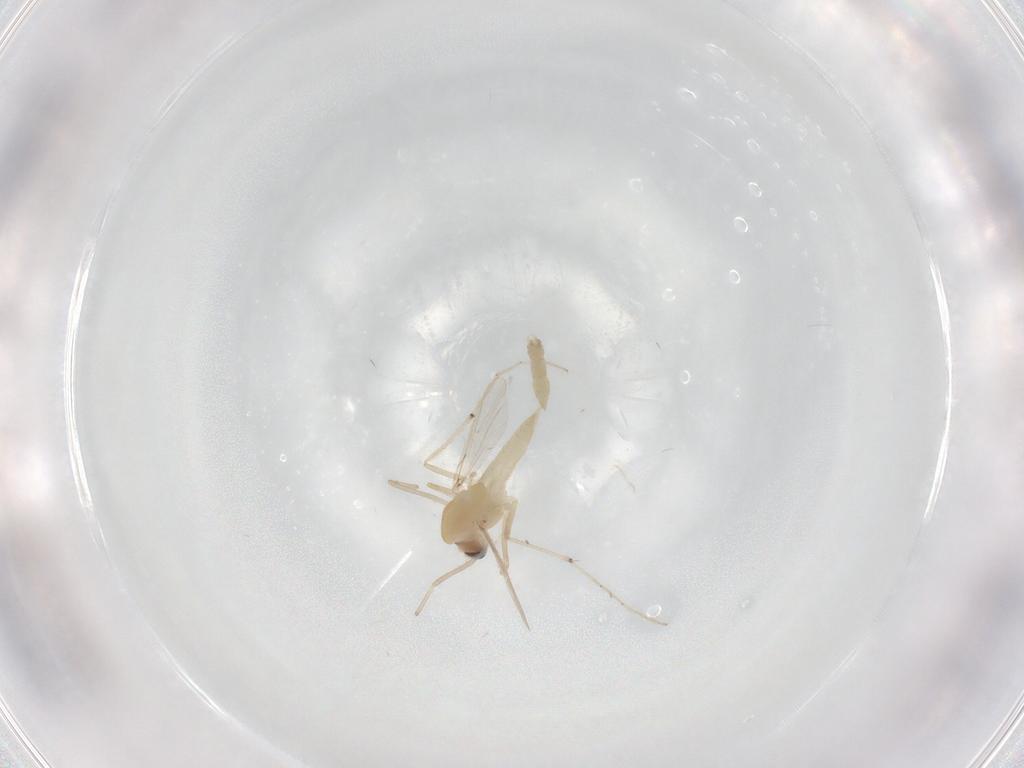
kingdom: Animalia
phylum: Arthropoda
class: Insecta
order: Diptera
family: Chironomidae
